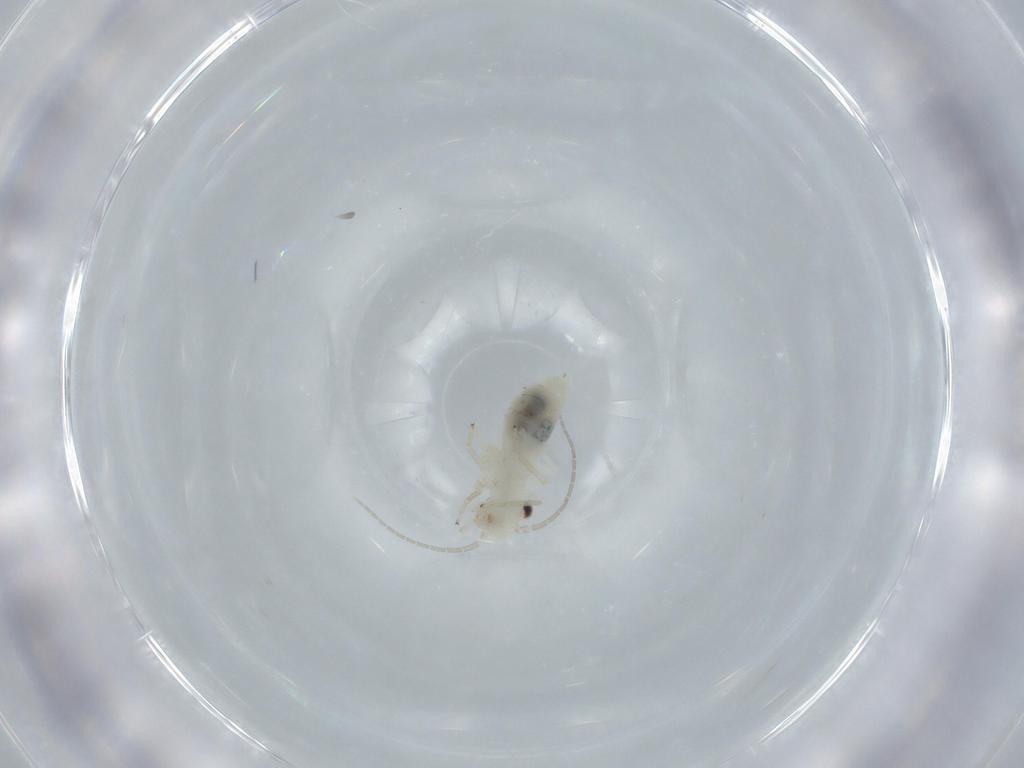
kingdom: Animalia
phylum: Arthropoda
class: Insecta
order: Psocodea
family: Caeciliusidae
